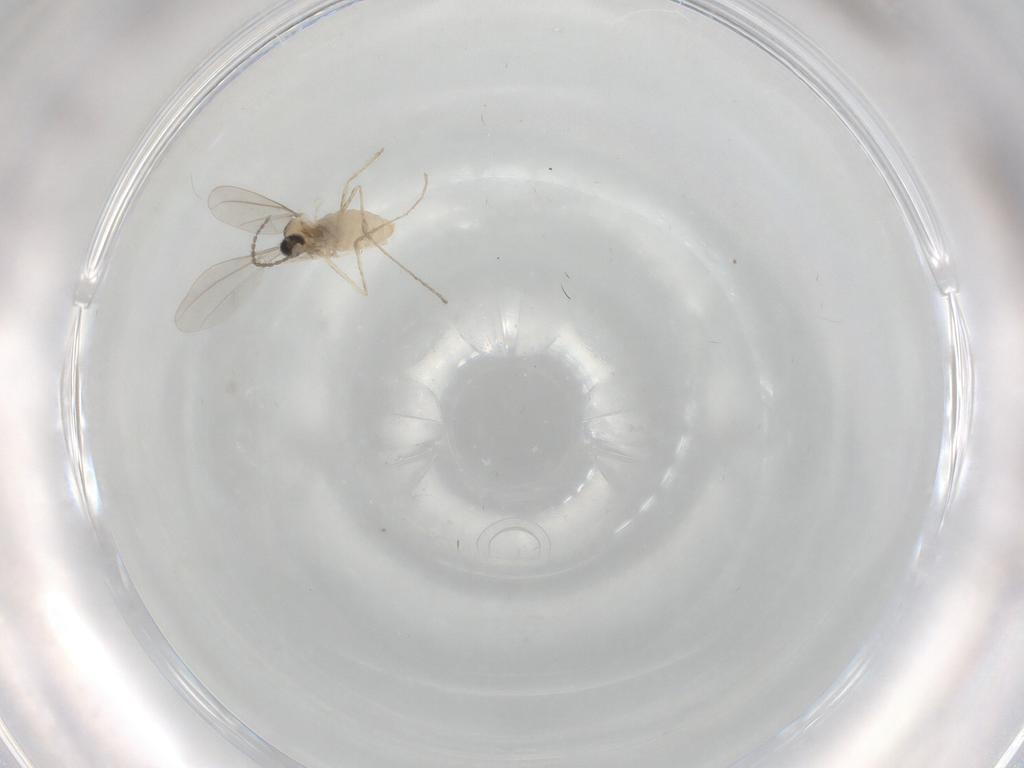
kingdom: Animalia
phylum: Arthropoda
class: Insecta
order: Diptera
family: Cecidomyiidae
